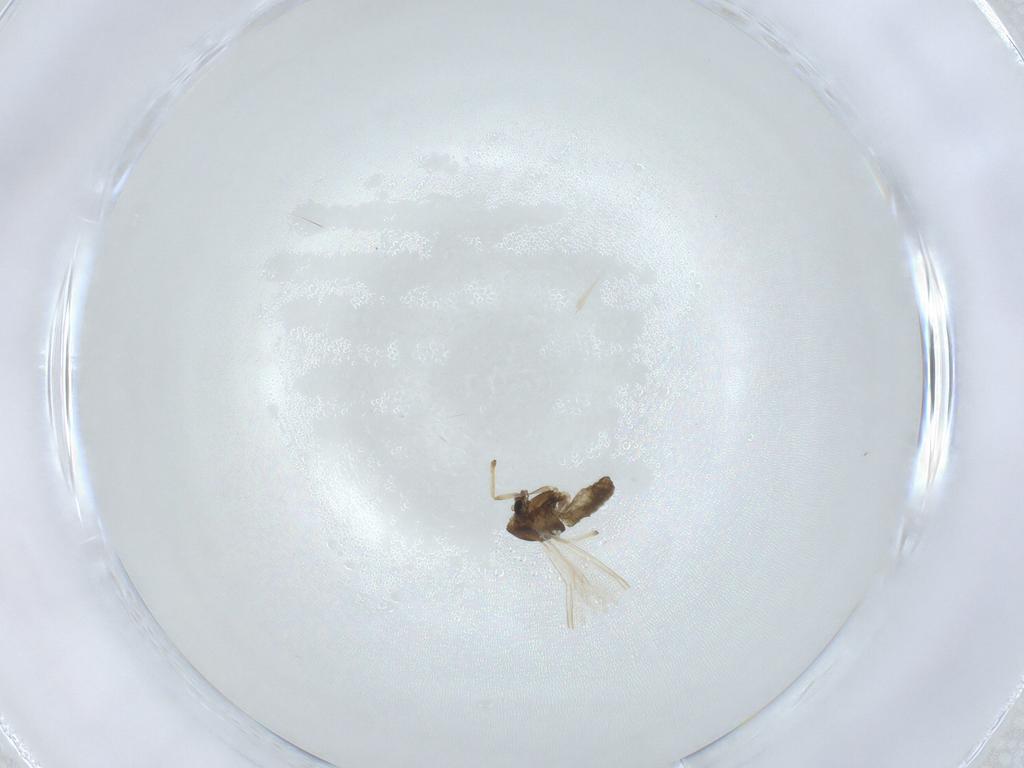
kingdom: Animalia
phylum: Arthropoda
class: Insecta
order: Diptera
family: Chironomidae
